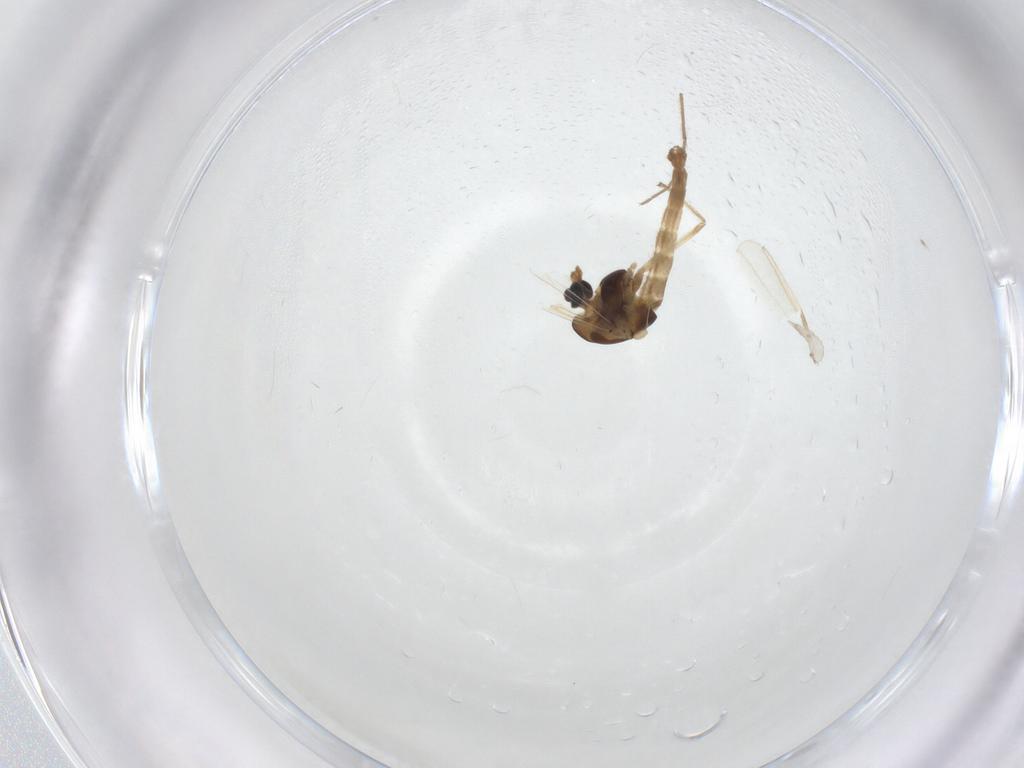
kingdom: Animalia
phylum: Arthropoda
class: Insecta
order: Diptera
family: Chironomidae
